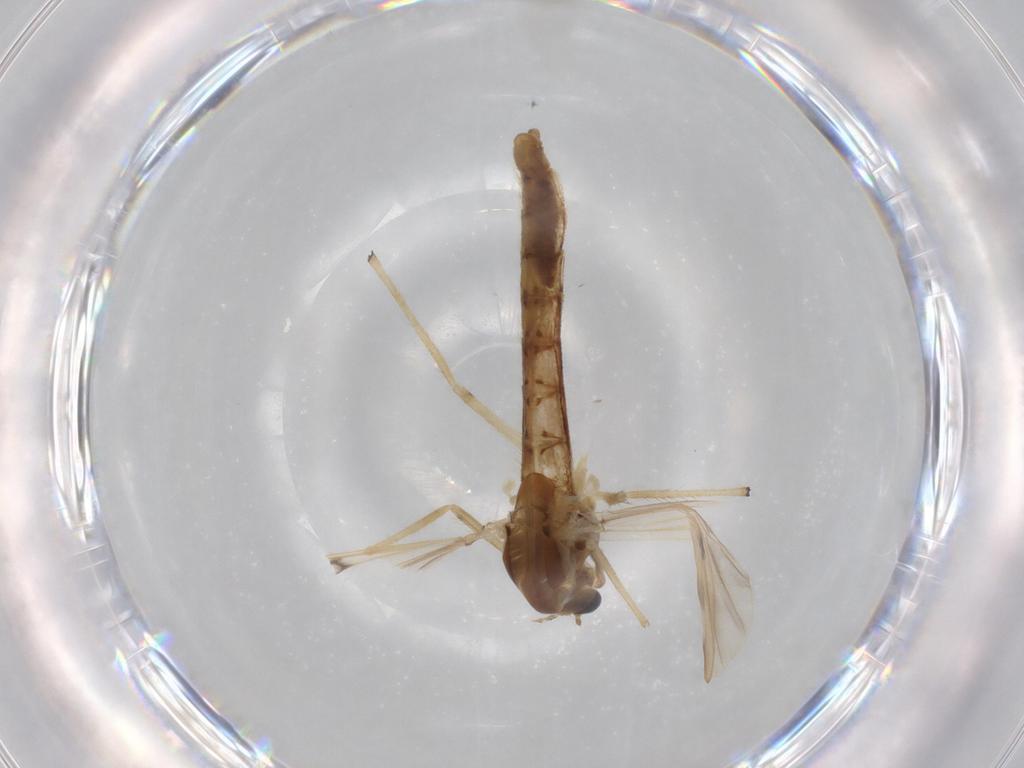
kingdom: Animalia
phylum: Arthropoda
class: Insecta
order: Diptera
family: Chironomidae
